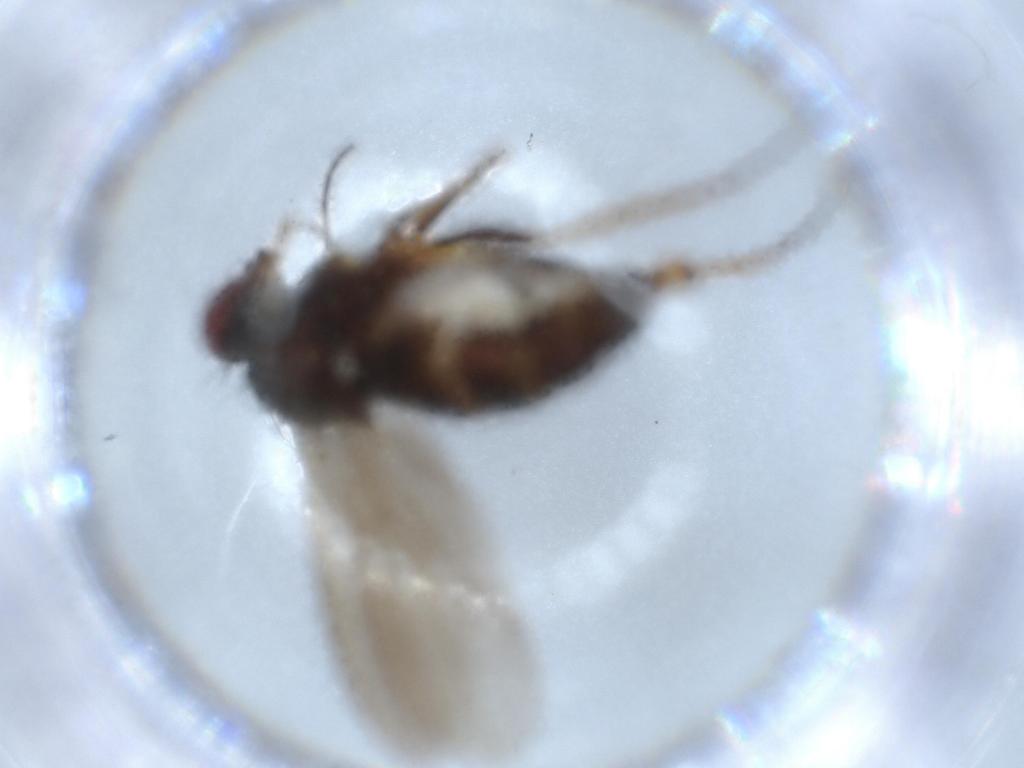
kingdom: Animalia
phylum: Arthropoda
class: Insecta
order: Diptera
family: Dolichopodidae
